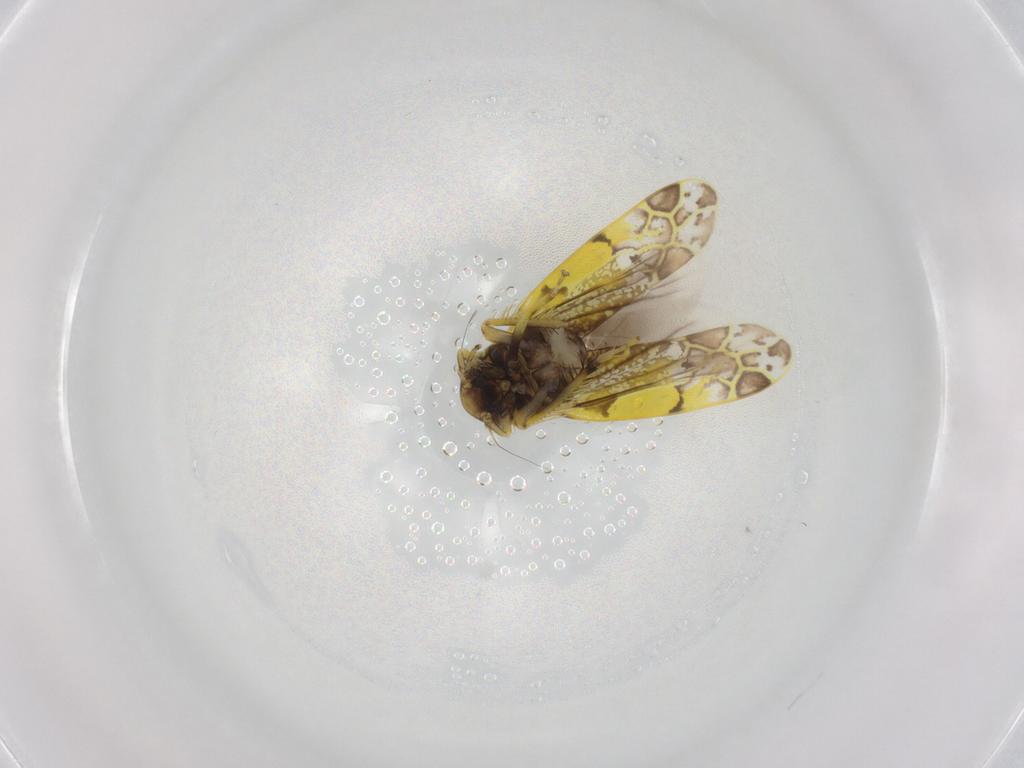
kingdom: Animalia
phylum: Arthropoda
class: Insecta
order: Hemiptera
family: Cicadellidae
